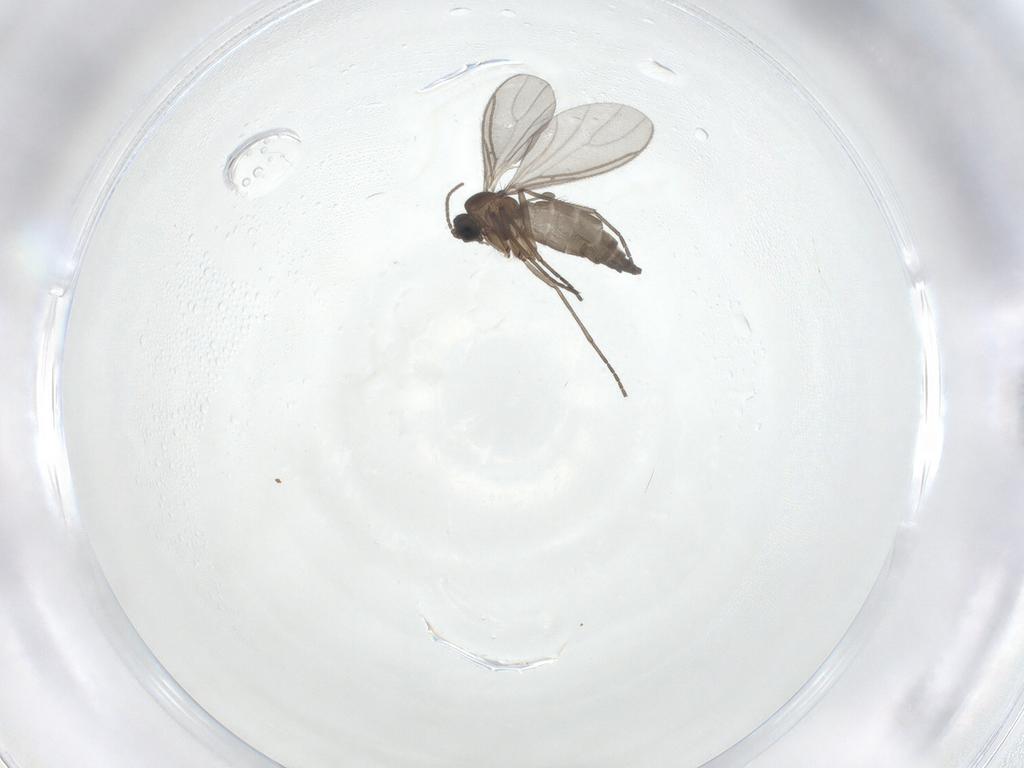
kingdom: Animalia
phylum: Arthropoda
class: Insecta
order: Diptera
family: Sciaridae
